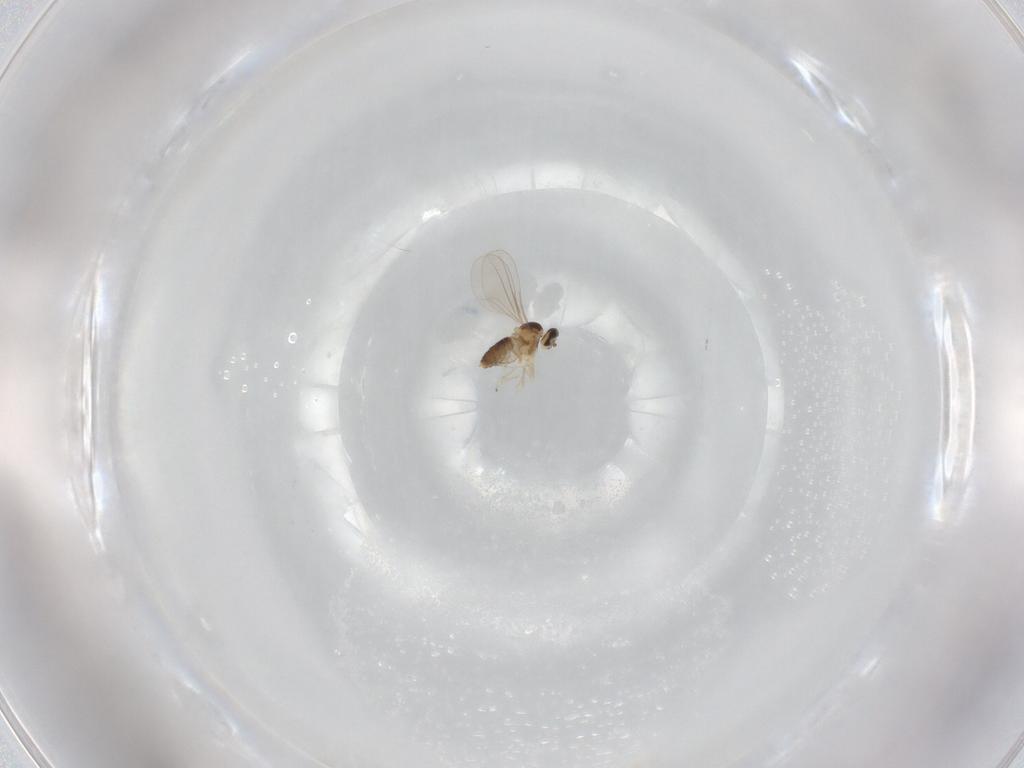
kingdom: Animalia
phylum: Arthropoda
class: Insecta
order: Diptera
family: Cecidomyiidae
